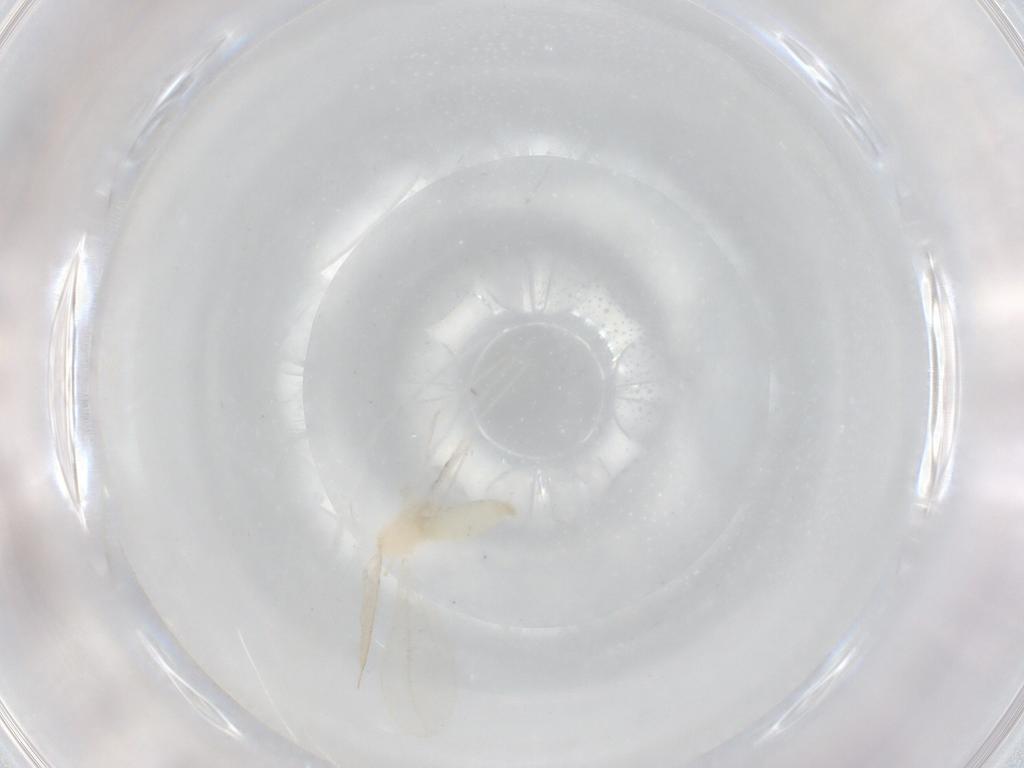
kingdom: Animalia
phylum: Arthropoda
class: Insecta
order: Diptera
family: Cecidomyiidae
